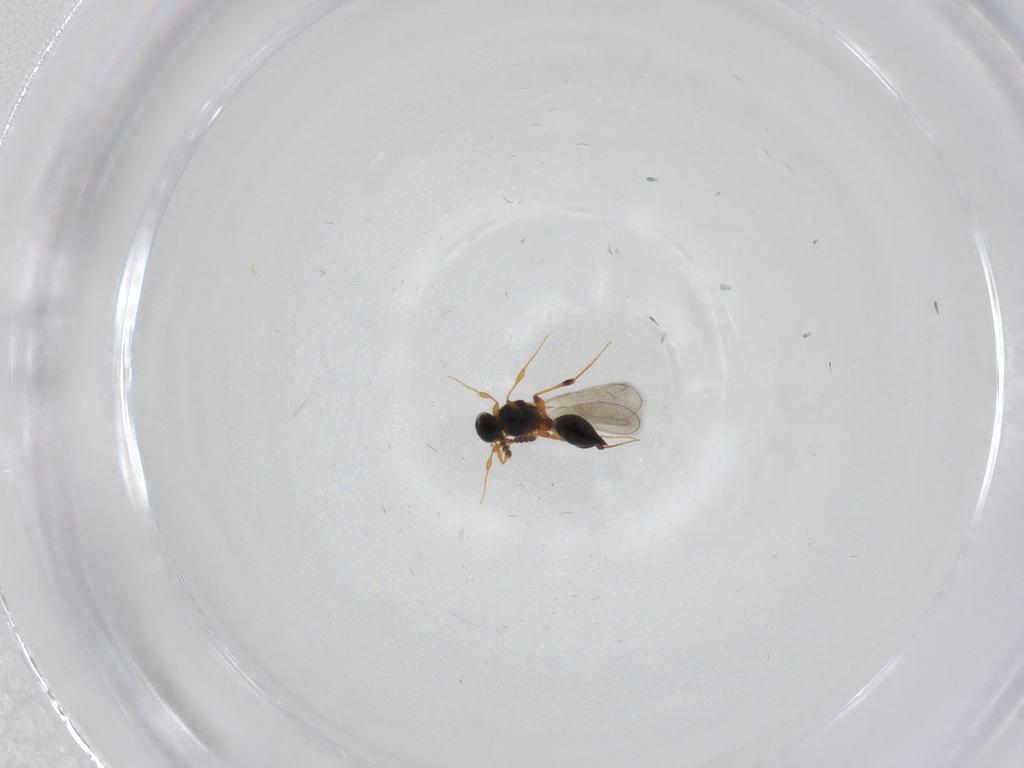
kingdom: Animalia
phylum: Arthropoda
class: Insecta
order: Hymenoptera
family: Platygastridae
